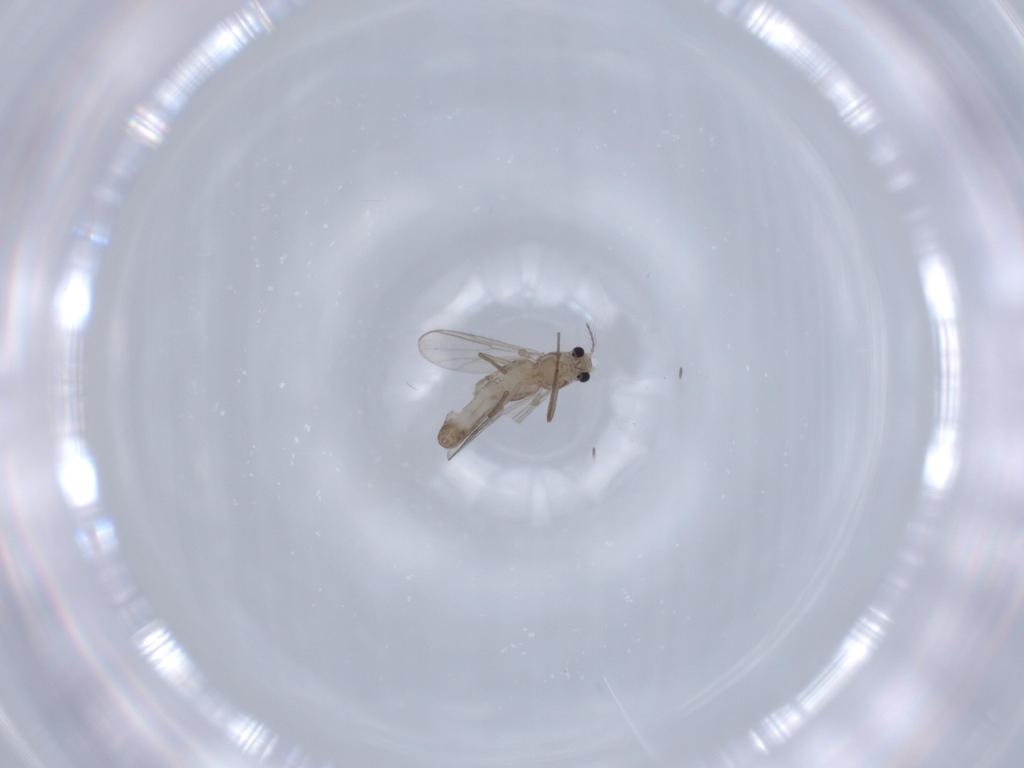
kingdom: Animalia
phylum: Arthropoda
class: Insecta
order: Diptera
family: Chironomidae
